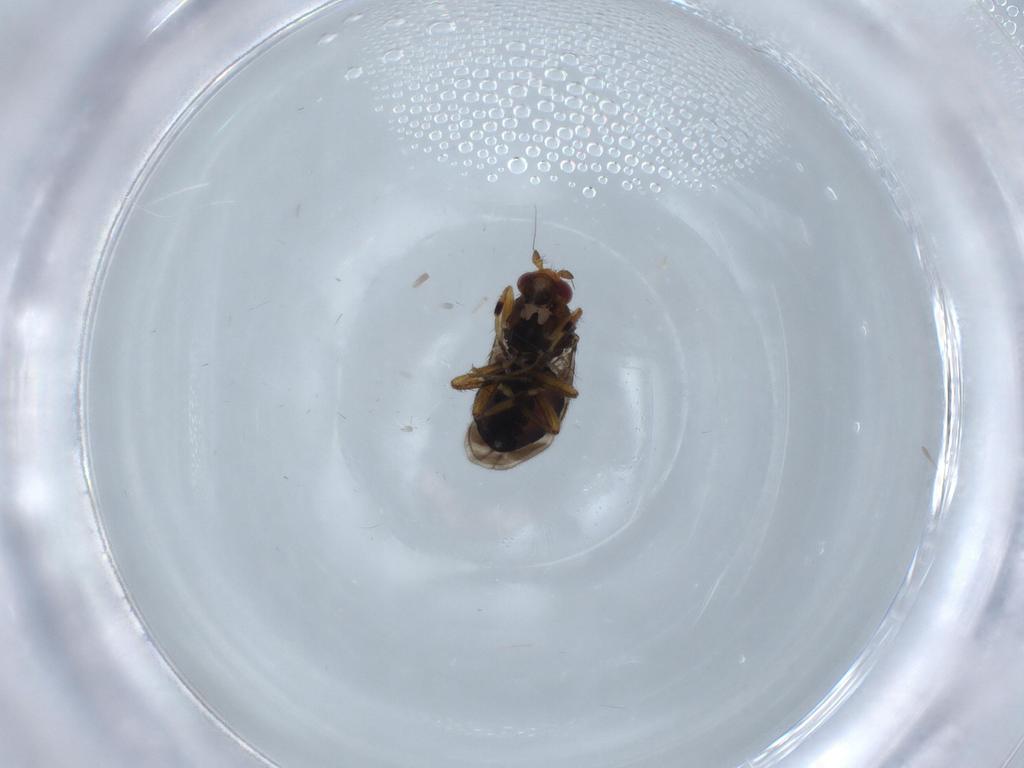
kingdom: Animalia
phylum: Arthropoda
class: Insecta
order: Diptera
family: Sphaeroceridae
